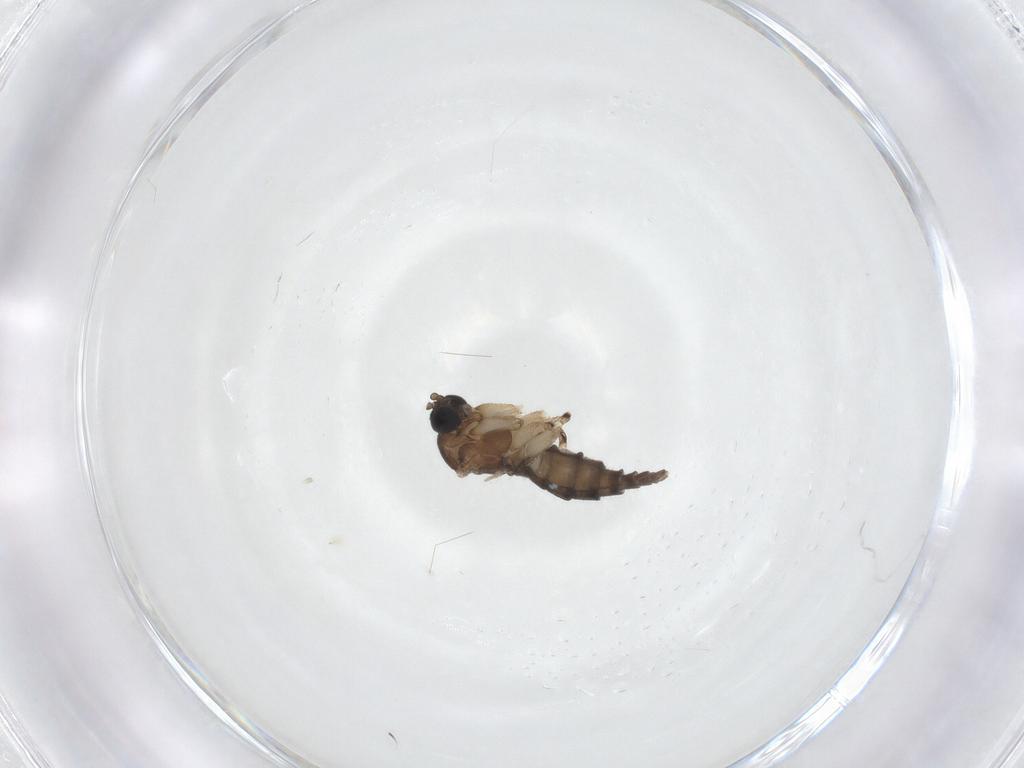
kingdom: Animalia
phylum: Arthropoda
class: Insecta
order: Diptera
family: Sciaridae
